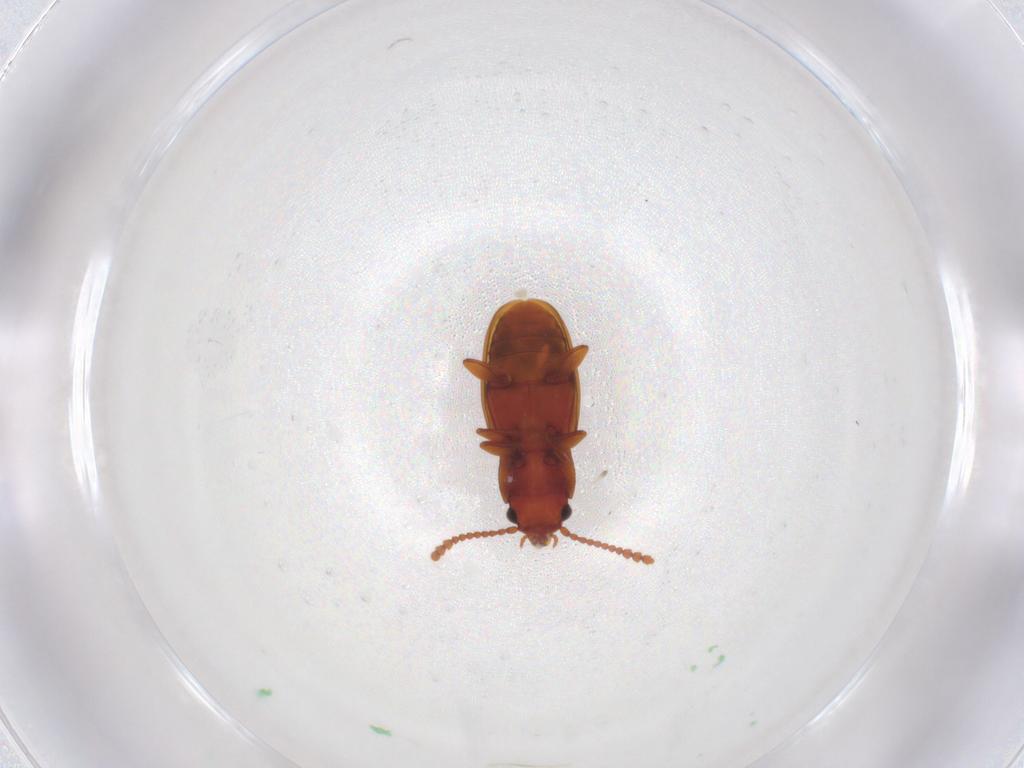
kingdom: Animalia
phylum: Arthropoda
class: Insecta
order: Coleoptera
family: Laemophloeidae
